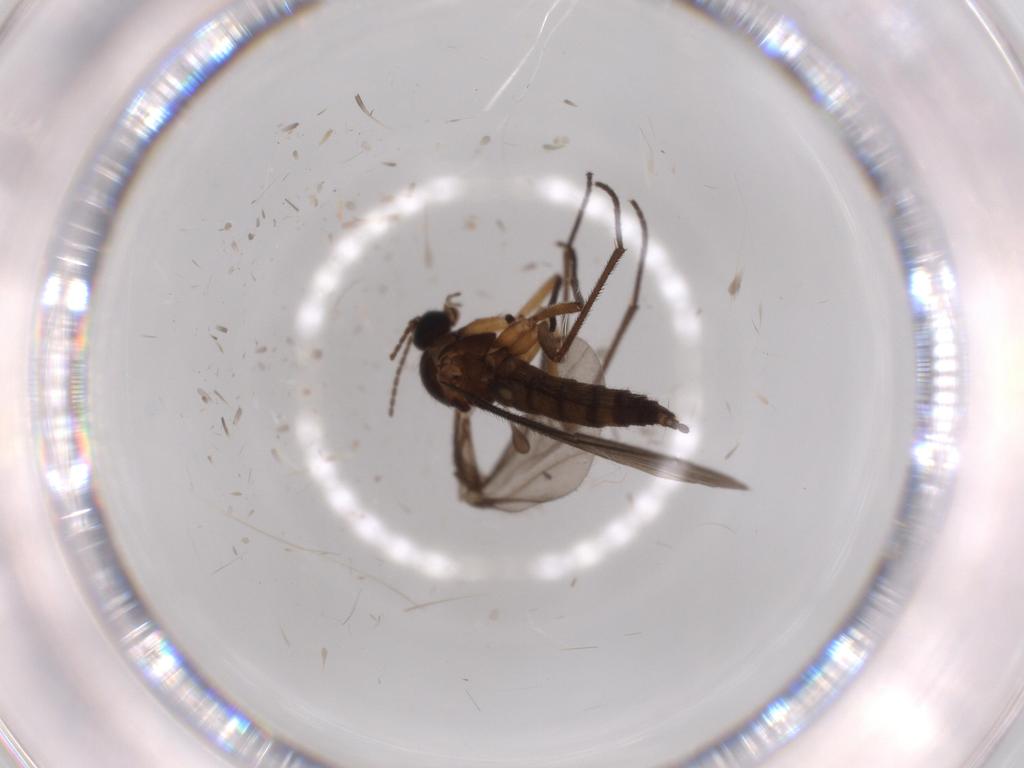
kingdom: Animalia
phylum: Arthropoda
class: Insecta
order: Diptera
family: Sciaridae
